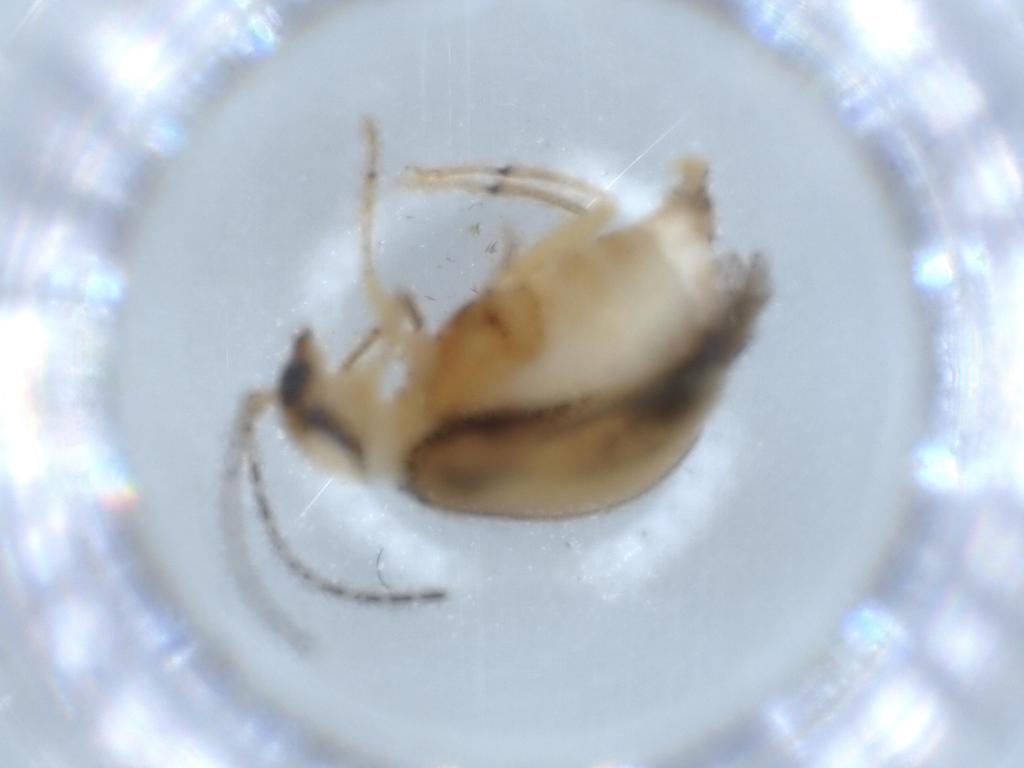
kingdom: Animalia
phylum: Arthropoda
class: Insecta
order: Coleoptera
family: Chrysomelidae
